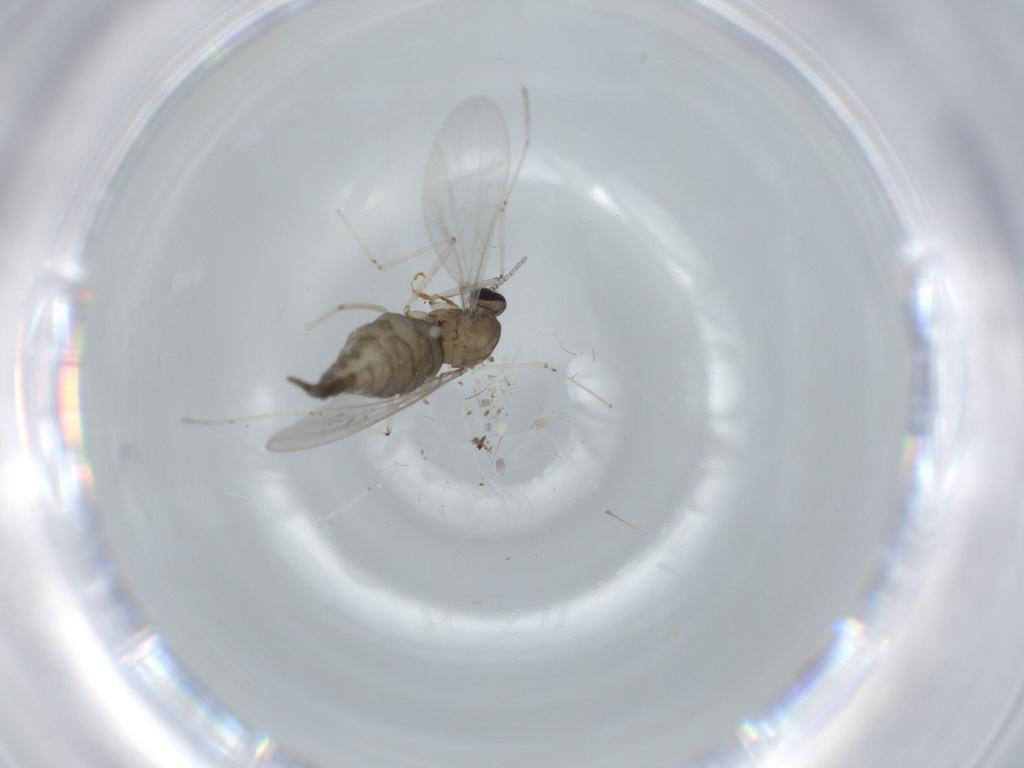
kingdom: Animalia
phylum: Arthropoda
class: Insecta
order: Diptera
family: Cecidomyiidae
